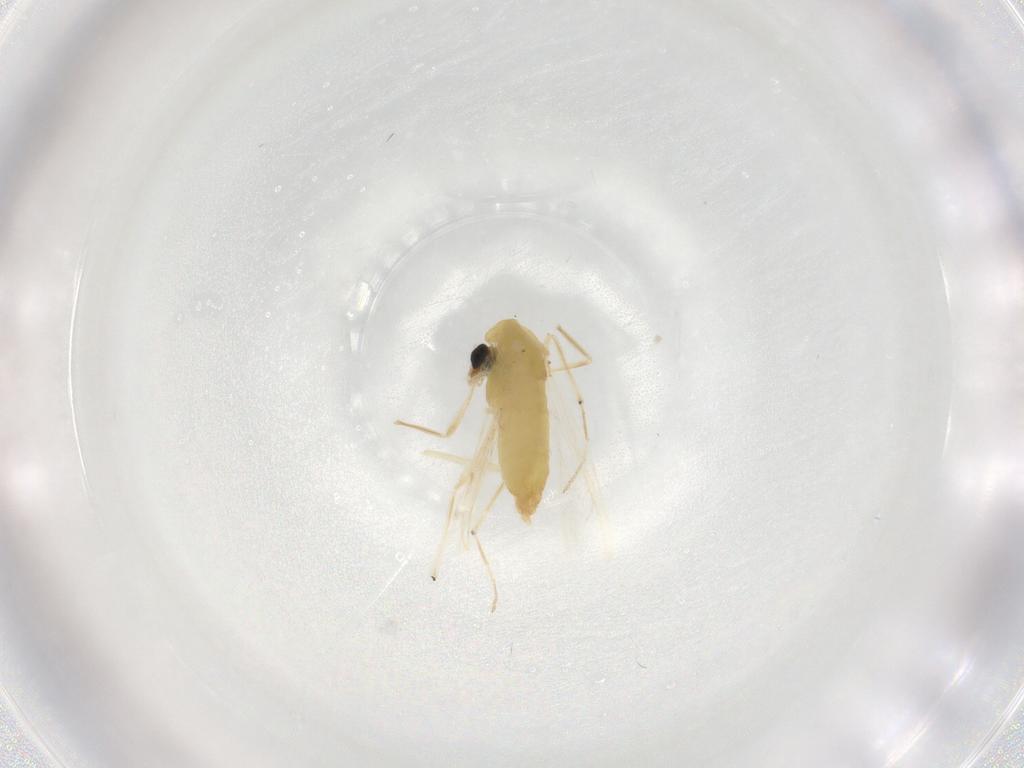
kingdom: Animalia
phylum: Arthropoda
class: Insecta
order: Diptera
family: Chironomidae
